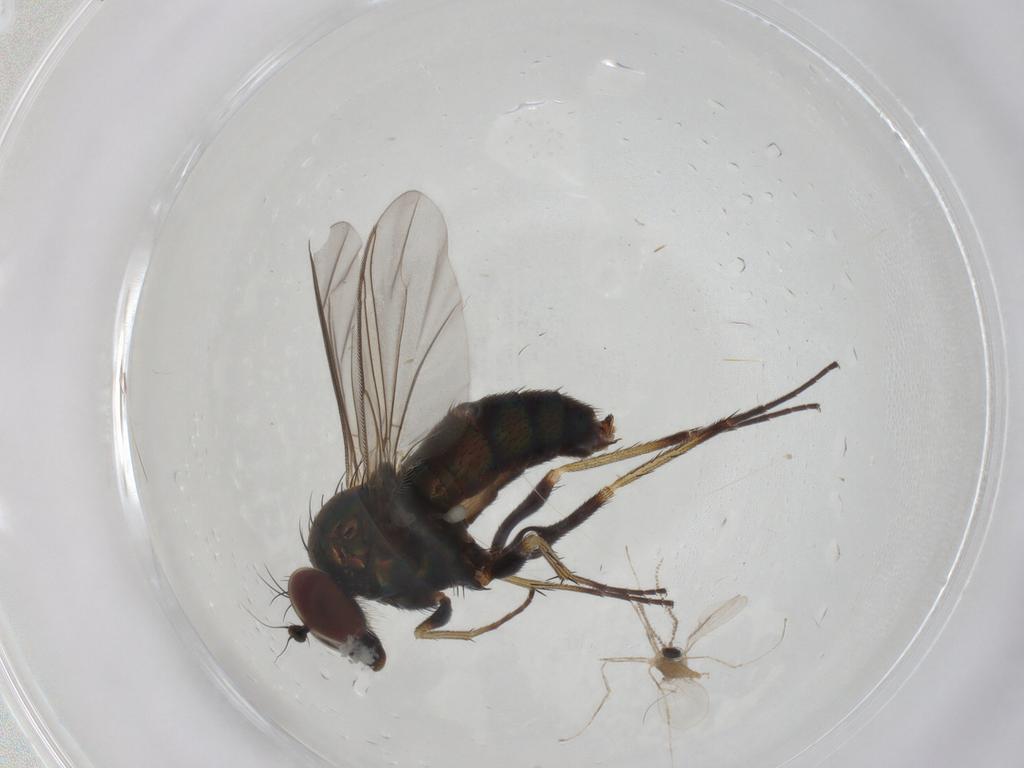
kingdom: Animalia
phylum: Arthropoda
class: Insecta
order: Diptera
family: Dolichopodidae
